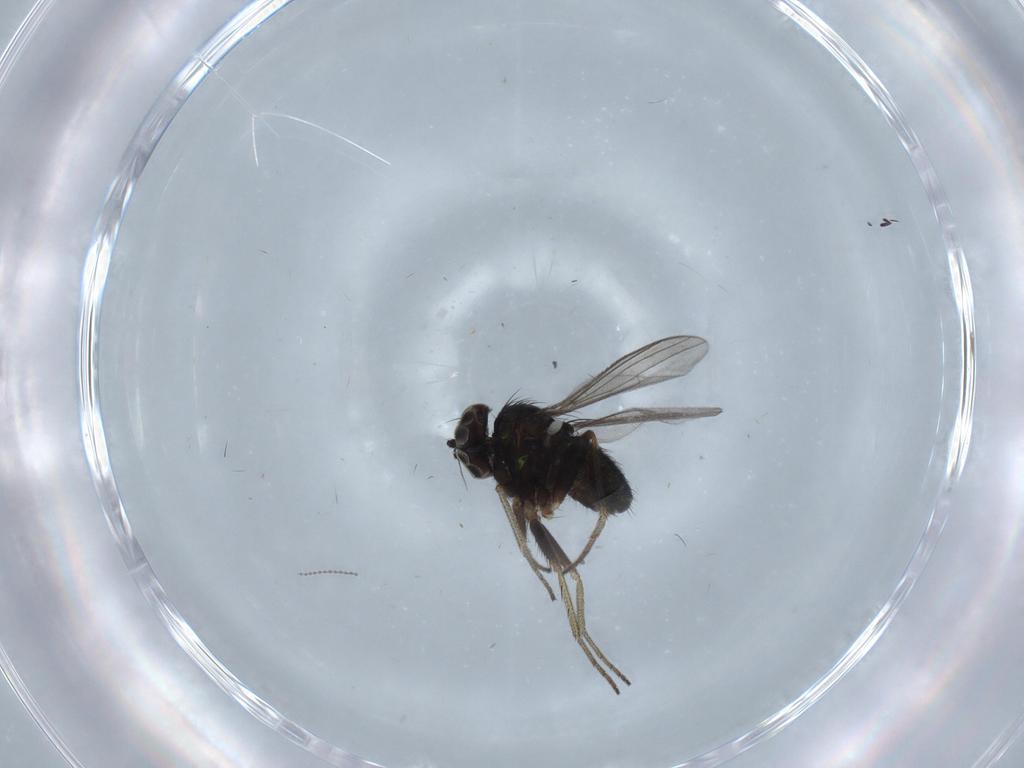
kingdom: Animalia
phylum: Arthropoda
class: Insecta
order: Diptera
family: Cecidomyiidae
